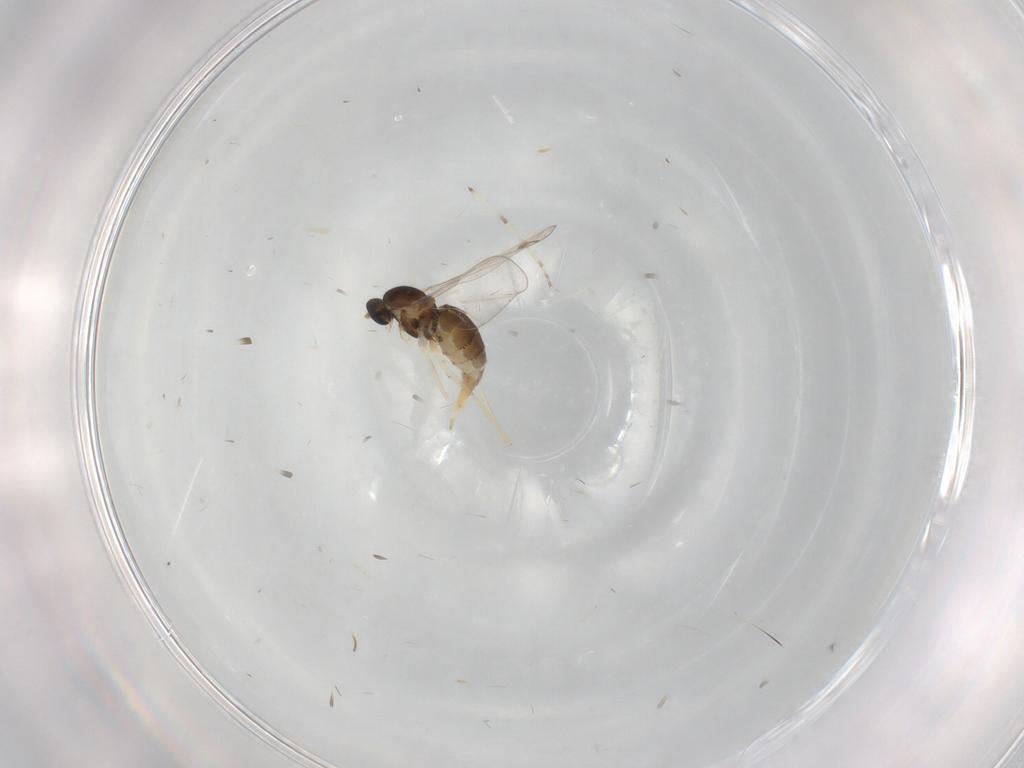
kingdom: Animalia
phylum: Arthropoda
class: Insecta
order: Diptera
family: Cecidomyiidae
